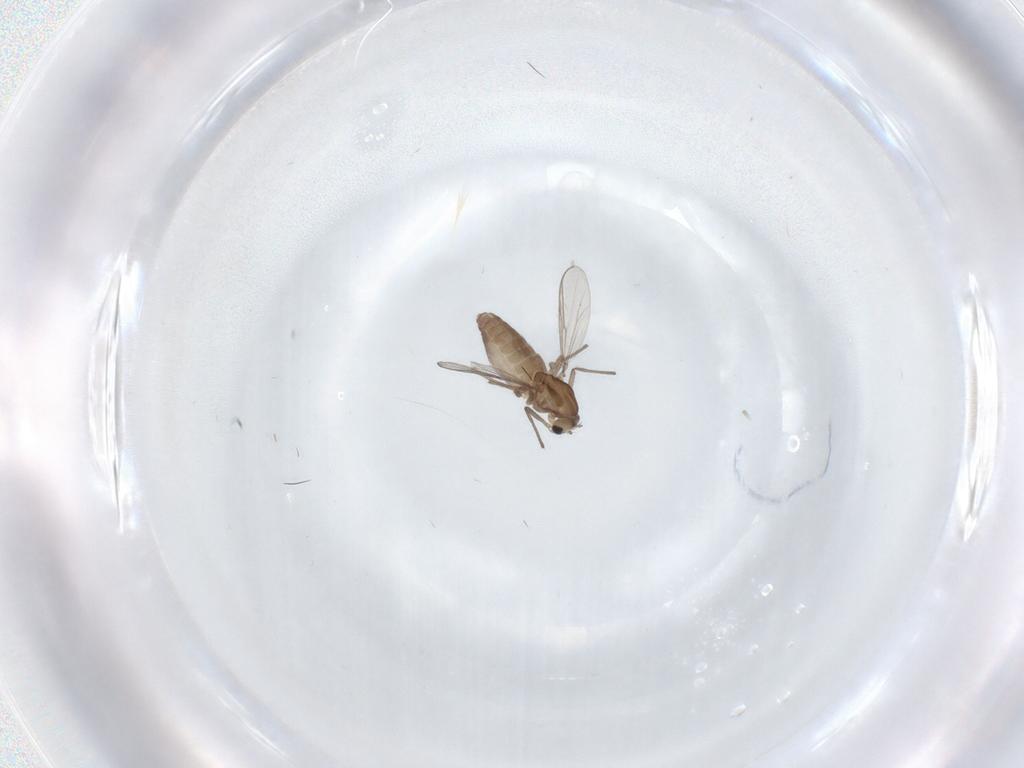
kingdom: Animalia
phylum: Arthropoda
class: Insecta
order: Diptera
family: Chironomidae
